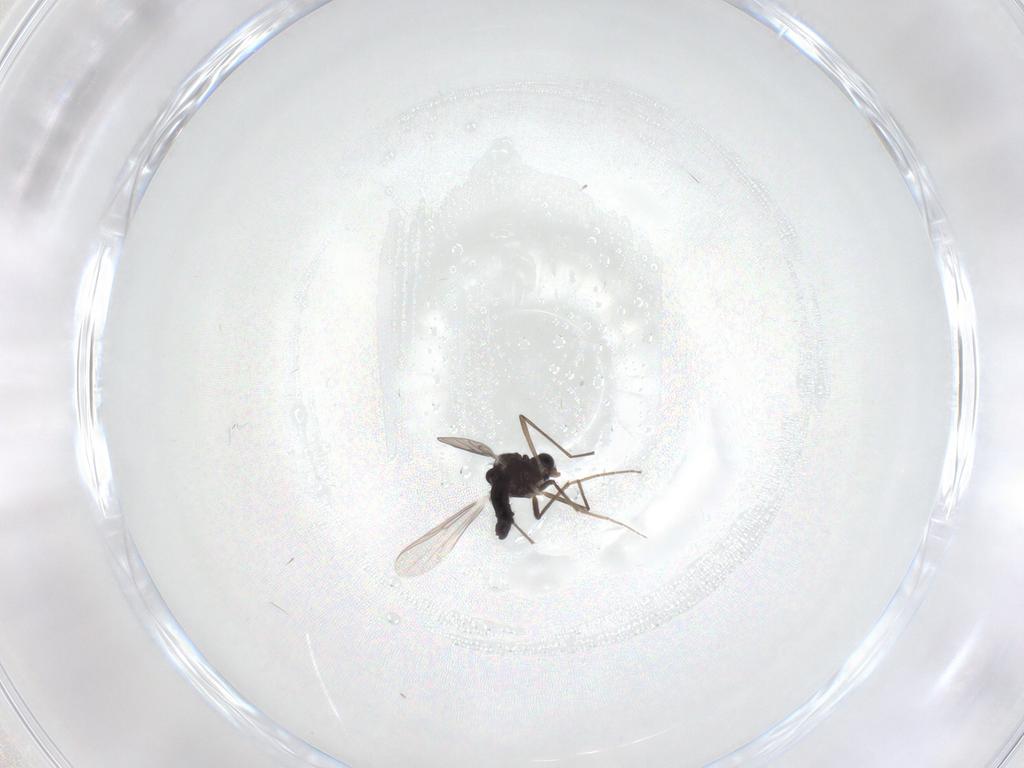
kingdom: Animalia
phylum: Arthropoda
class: Insecta
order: Diptera
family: Chironomidae
